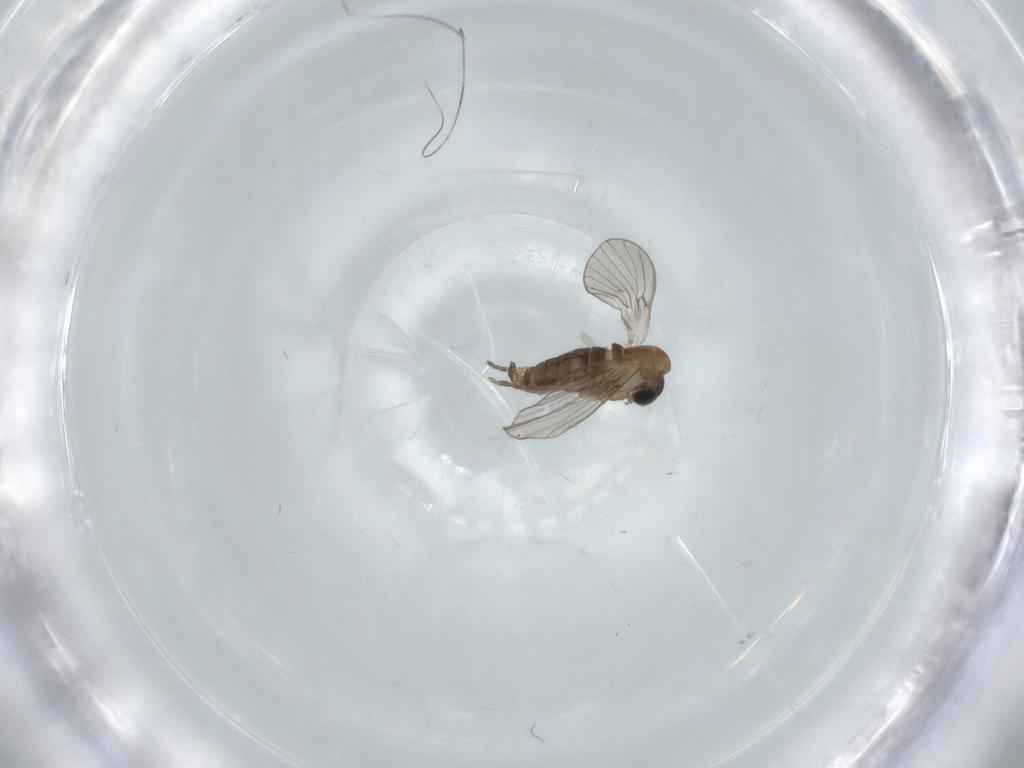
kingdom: Animalia
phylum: Arthropoda
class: Insecta
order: Diptera
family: Psychodidae
